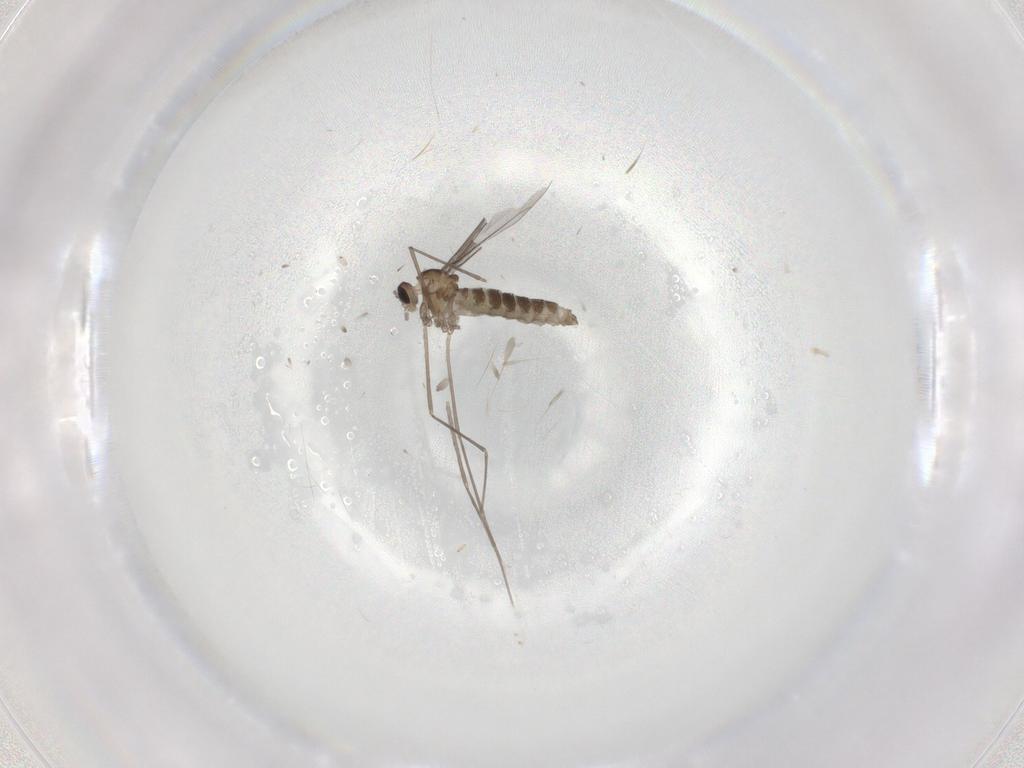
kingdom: Animalia
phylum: Arthropoda
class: Insecta
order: Diptera
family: Cecidomyiidae
